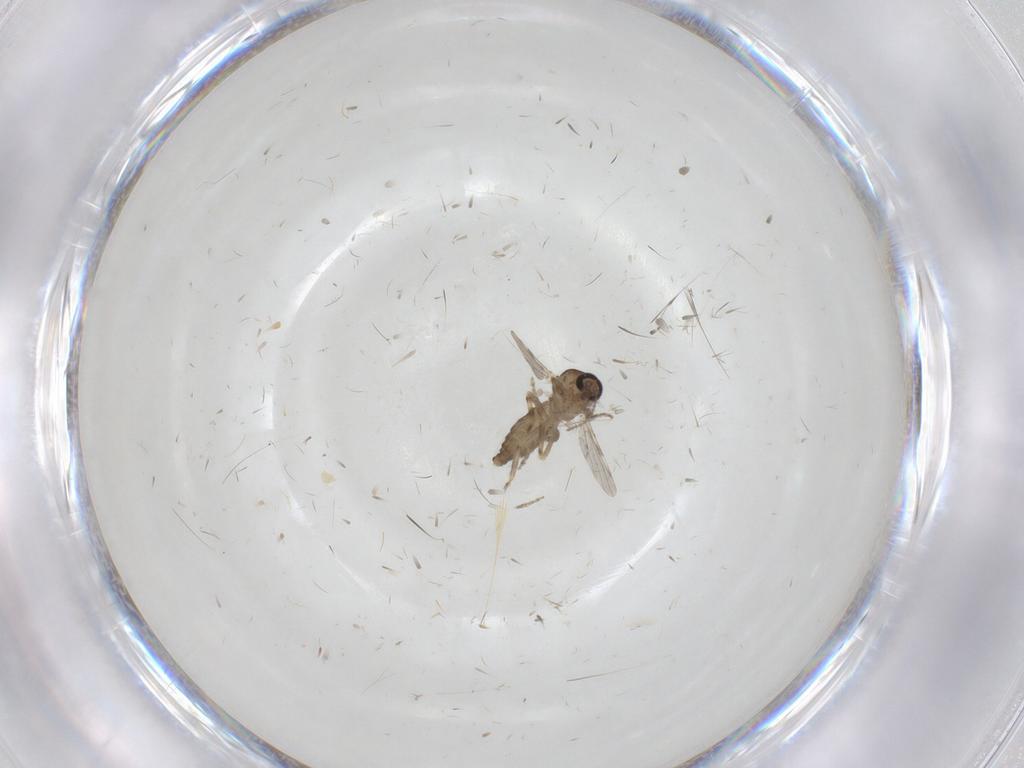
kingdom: Animalia
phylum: Arthropoda
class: Insecta
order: Diptera
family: Ceratopogonidae
